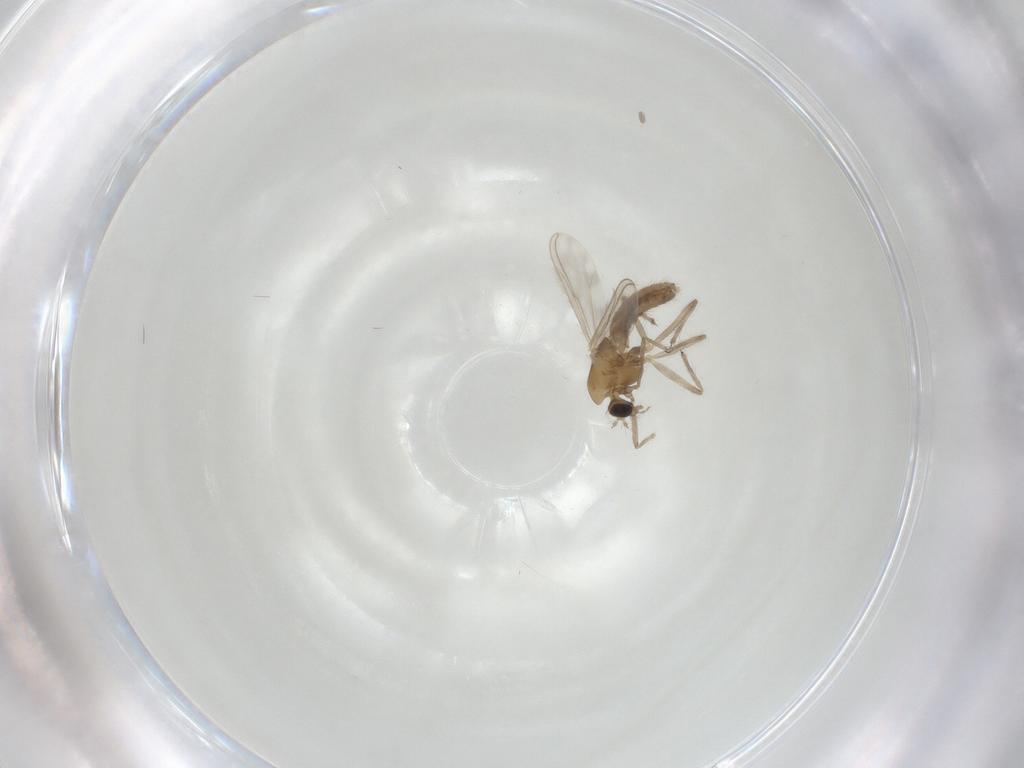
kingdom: Animalia
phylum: Arthropoda
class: Insecta
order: Diptera
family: Chironomidae
